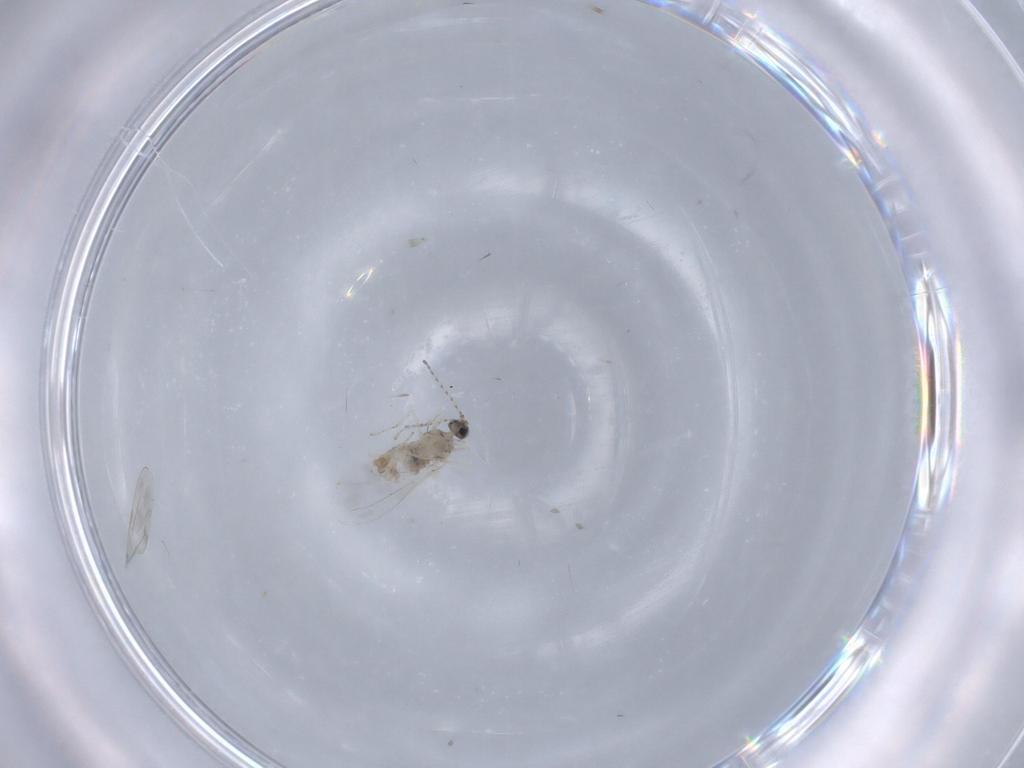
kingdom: Animalia
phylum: Arthropoda
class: Insecta
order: Diptera
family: Cecidomyiidae
